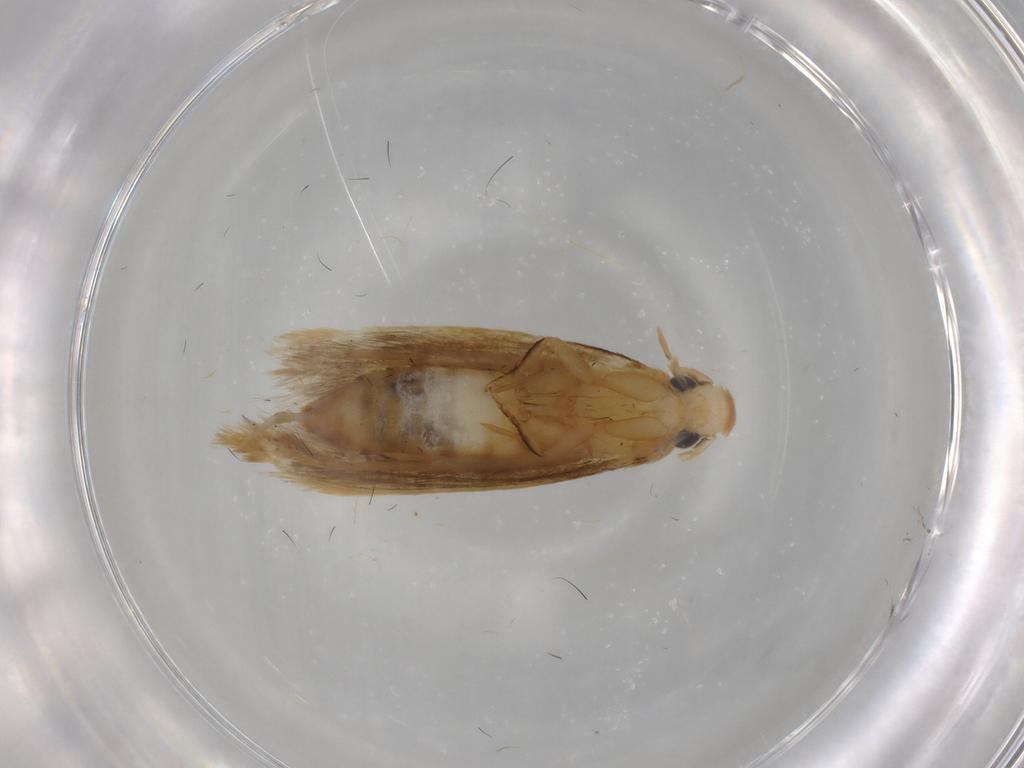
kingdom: Animalia
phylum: Arthropoda
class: Insecta
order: Lepidoptera
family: Tineidae
